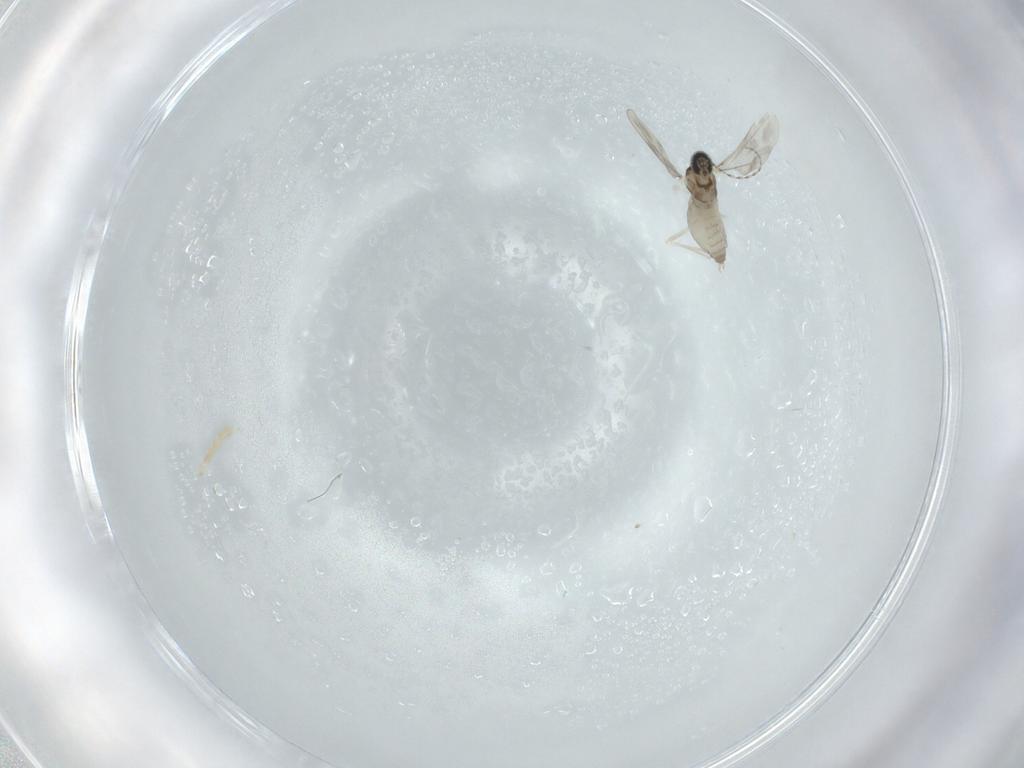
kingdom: Animalia
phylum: Arthropoda
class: Insecta
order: Diptera
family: Cecidomyiidae
